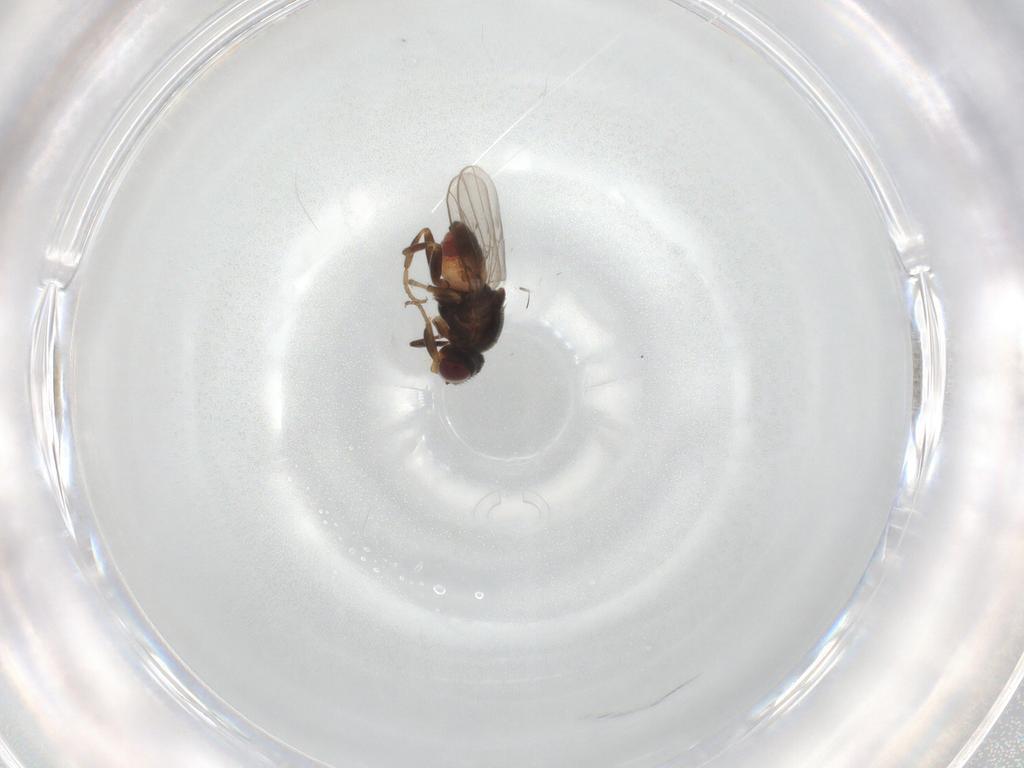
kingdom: Animalia
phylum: Arthropoda
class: Insecta
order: Diptera
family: Chloropidae
